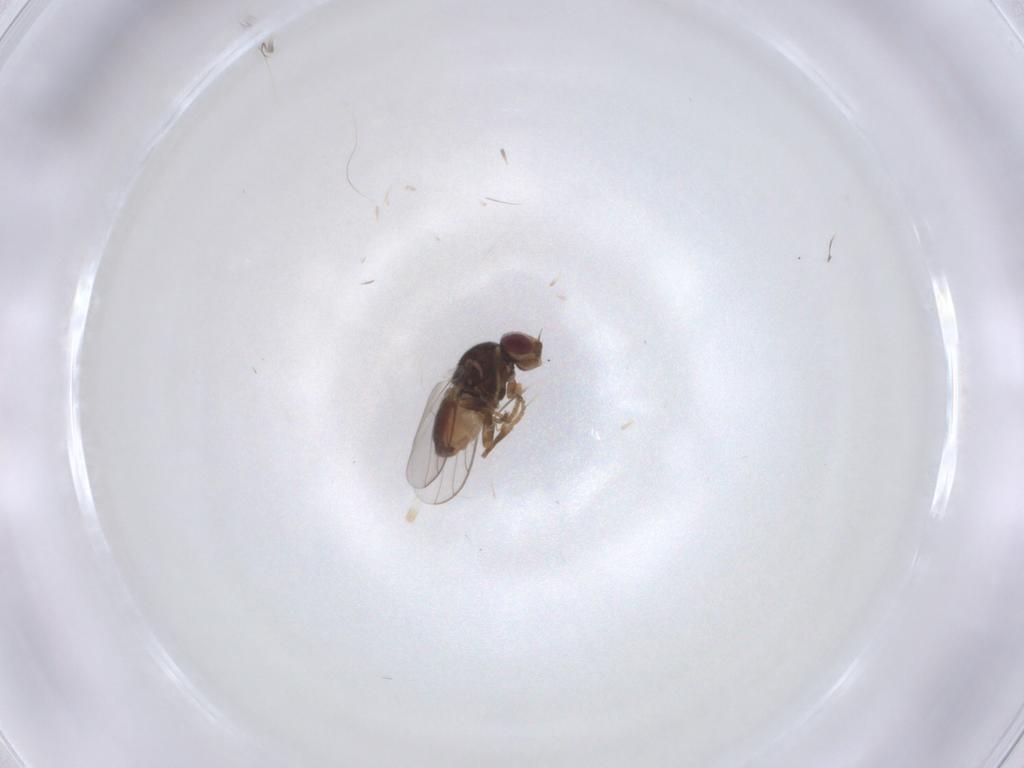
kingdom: Animalia
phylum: Arthropoda
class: Insecta
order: Diptera
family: Chloropidae
